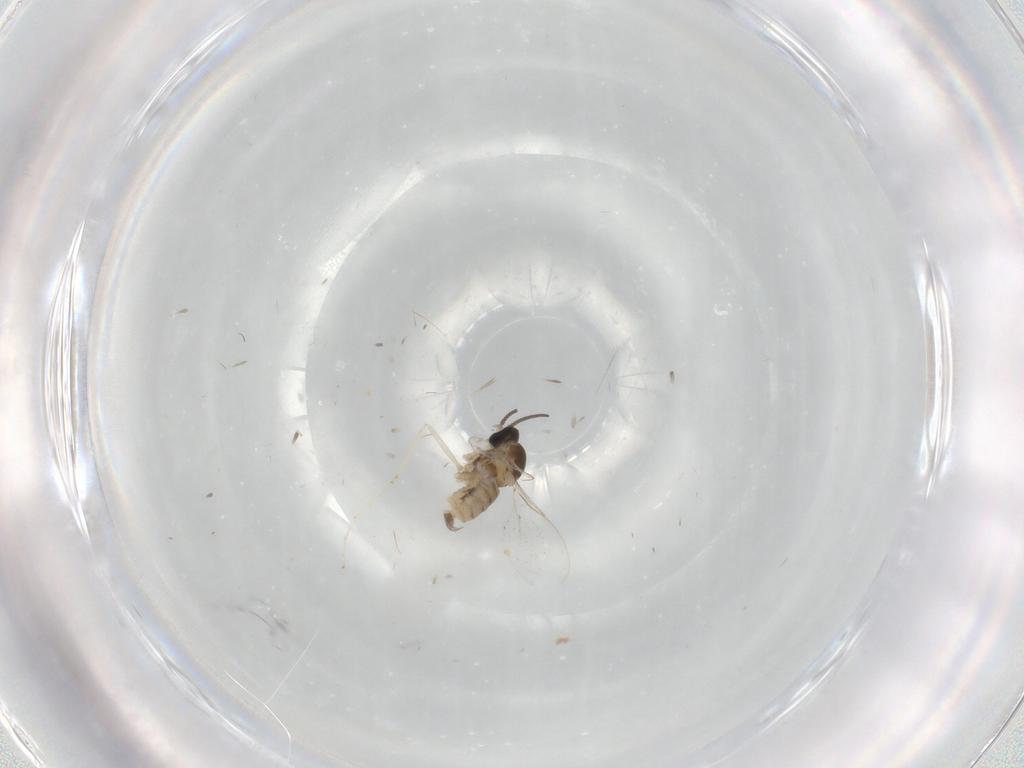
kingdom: Animalia
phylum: Arthropoda
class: Insecta
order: Diptera
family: Cecidomyiidae
